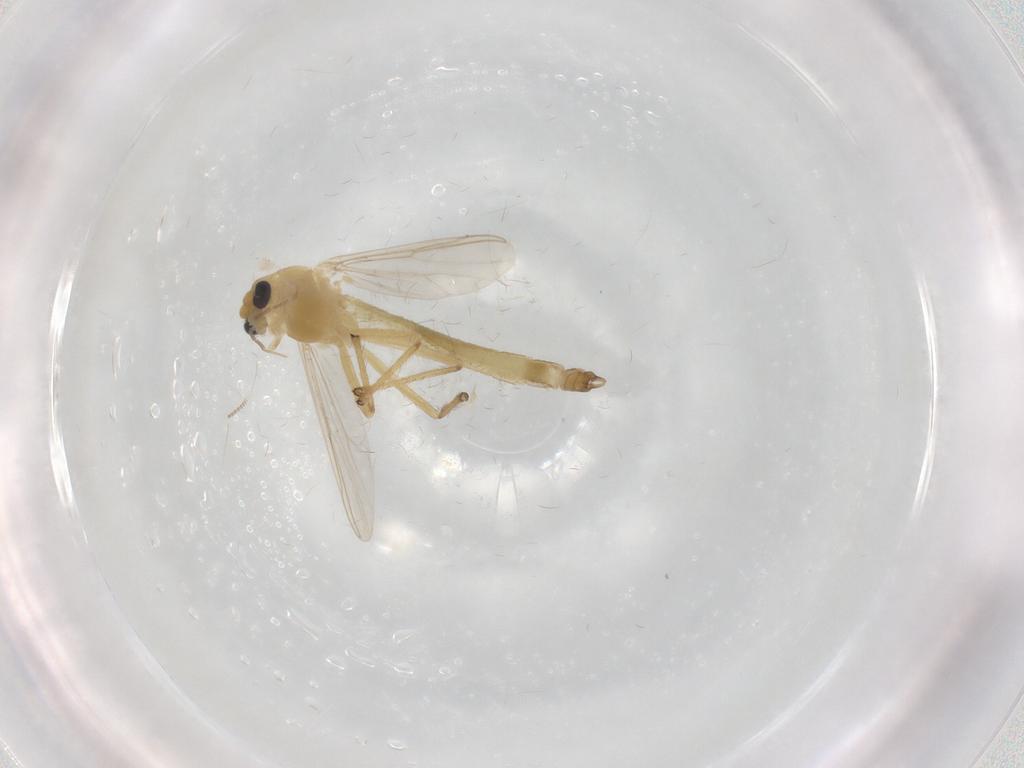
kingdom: Animalia
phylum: Arthropoda
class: Insecta
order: Diptera
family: Chironomidae
